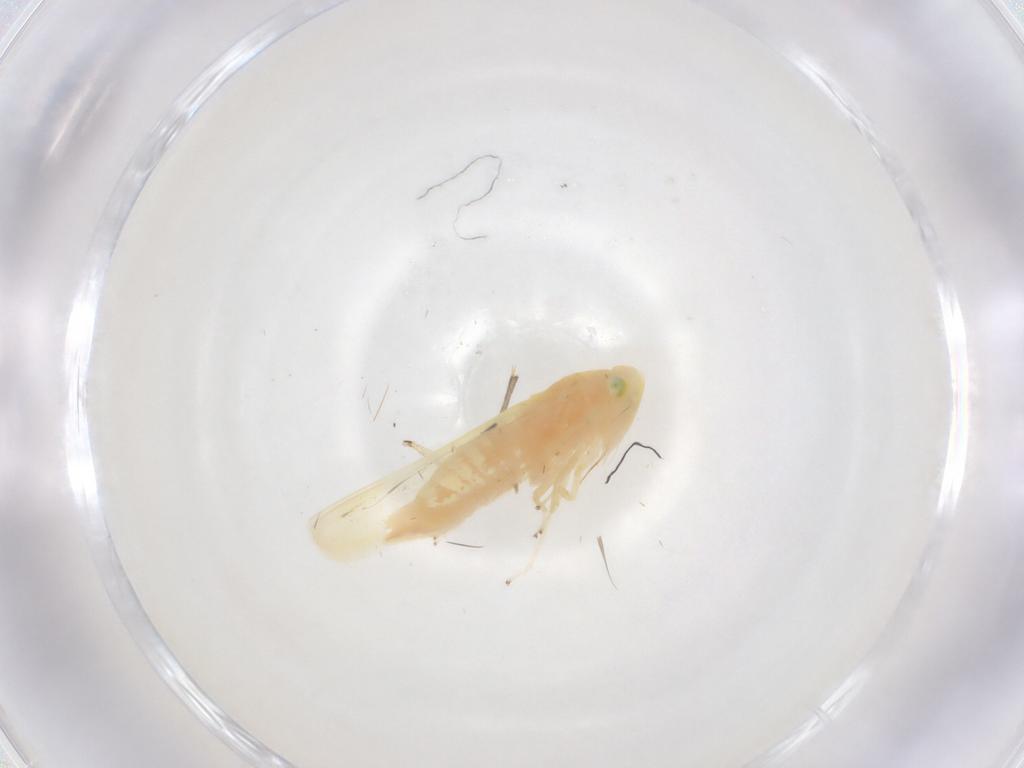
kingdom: Animalia
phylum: Arthropoda
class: Insecta
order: Hemiptera
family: Cicadellidae
